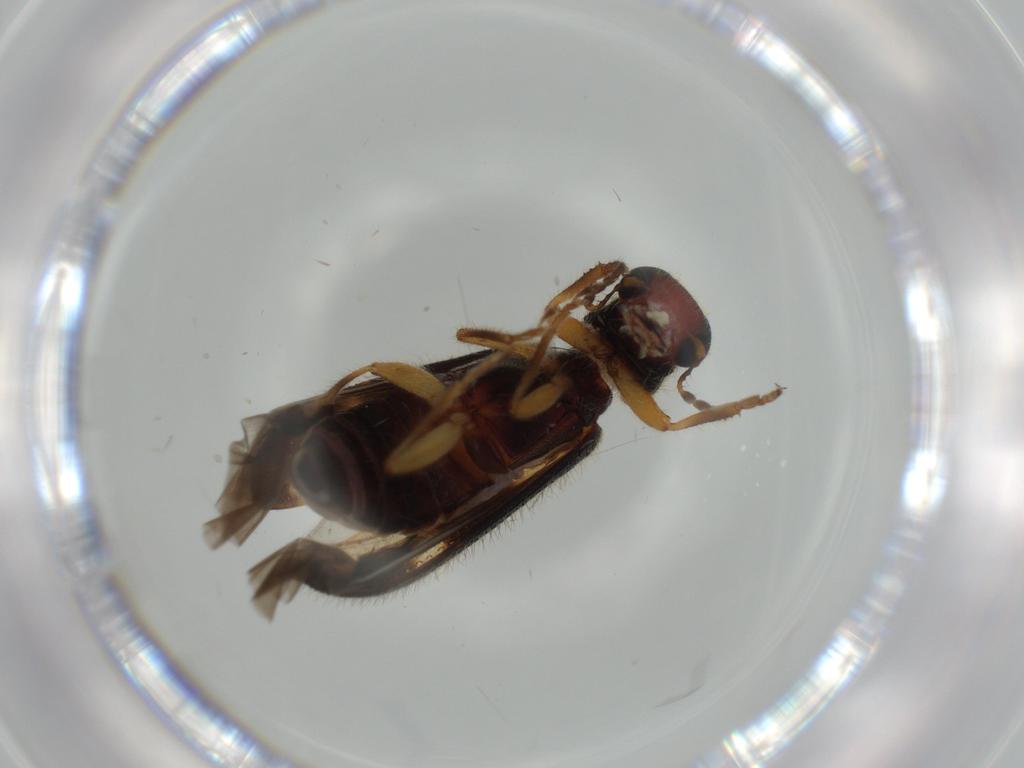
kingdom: Animalia
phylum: Arthropoda
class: Insecta
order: Coleoptera
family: Cleridae
